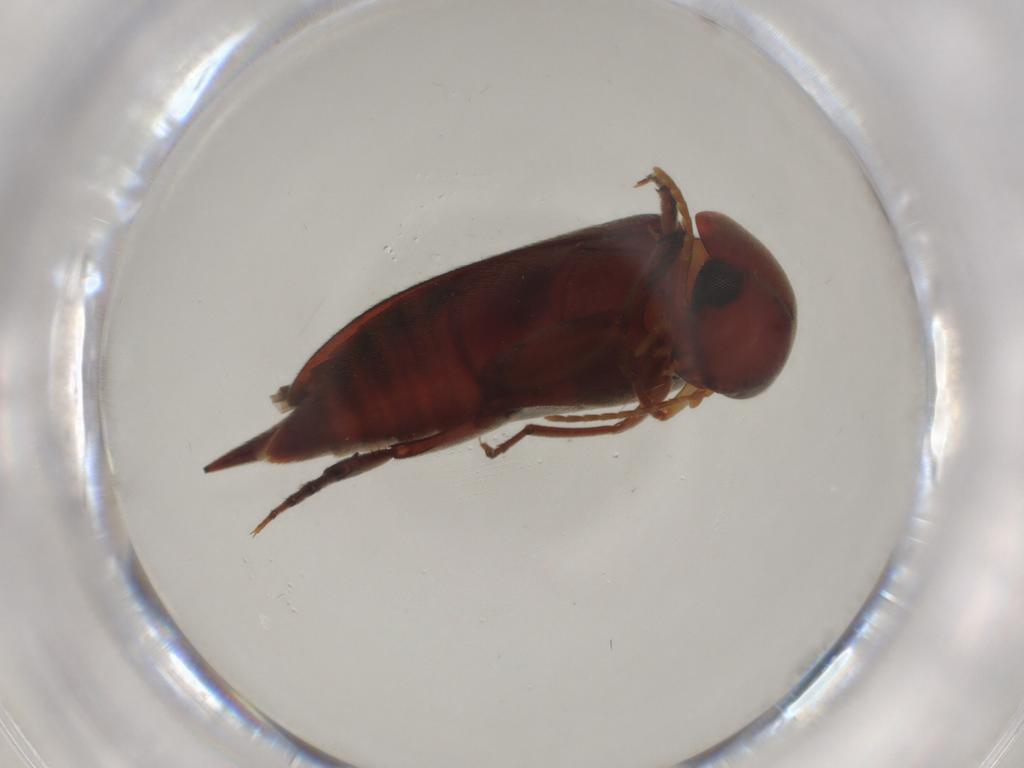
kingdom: Animalia
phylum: Arthropoda
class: Insecta
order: Coleoptera
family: Mordellidae
